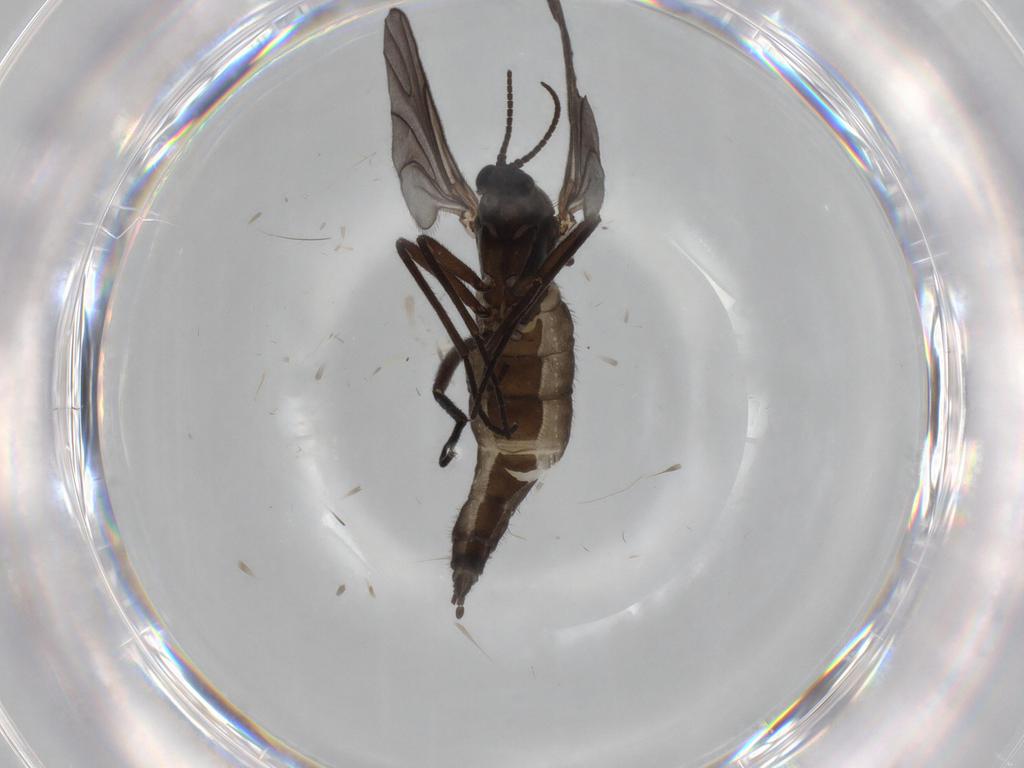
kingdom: Animalia
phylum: Arthropoda
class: Insecta
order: Diptera
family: Sciaridae
